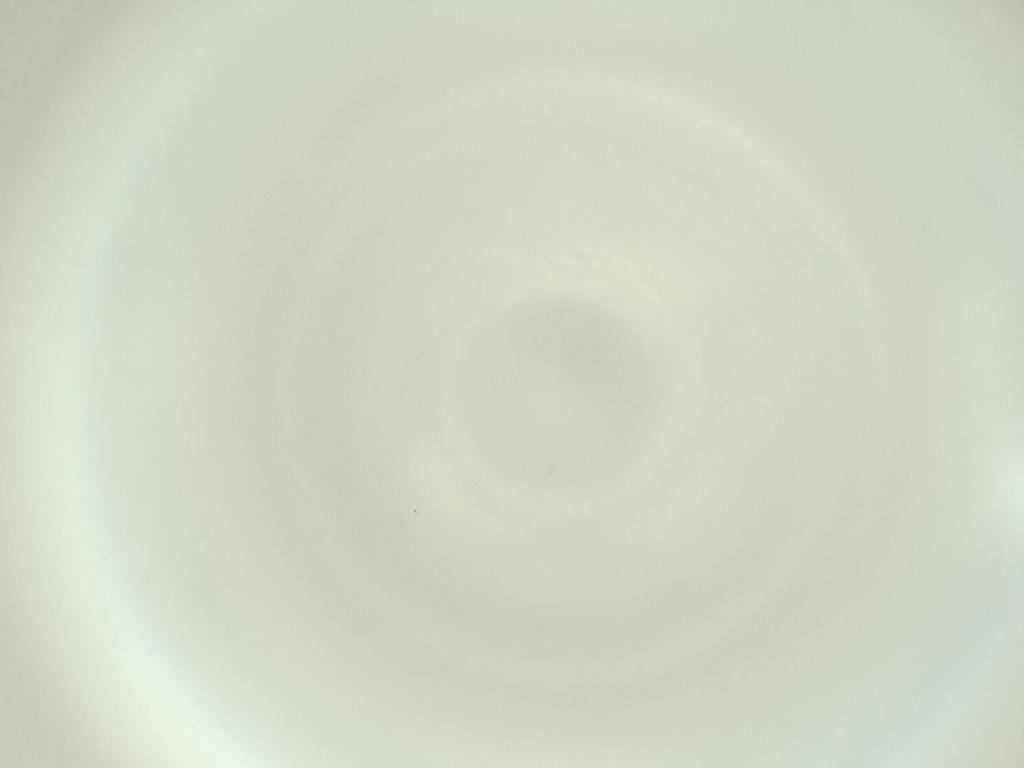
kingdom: Animalia
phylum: Arthropoda
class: Insecta
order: Diptera
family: Cecidomyiidae
